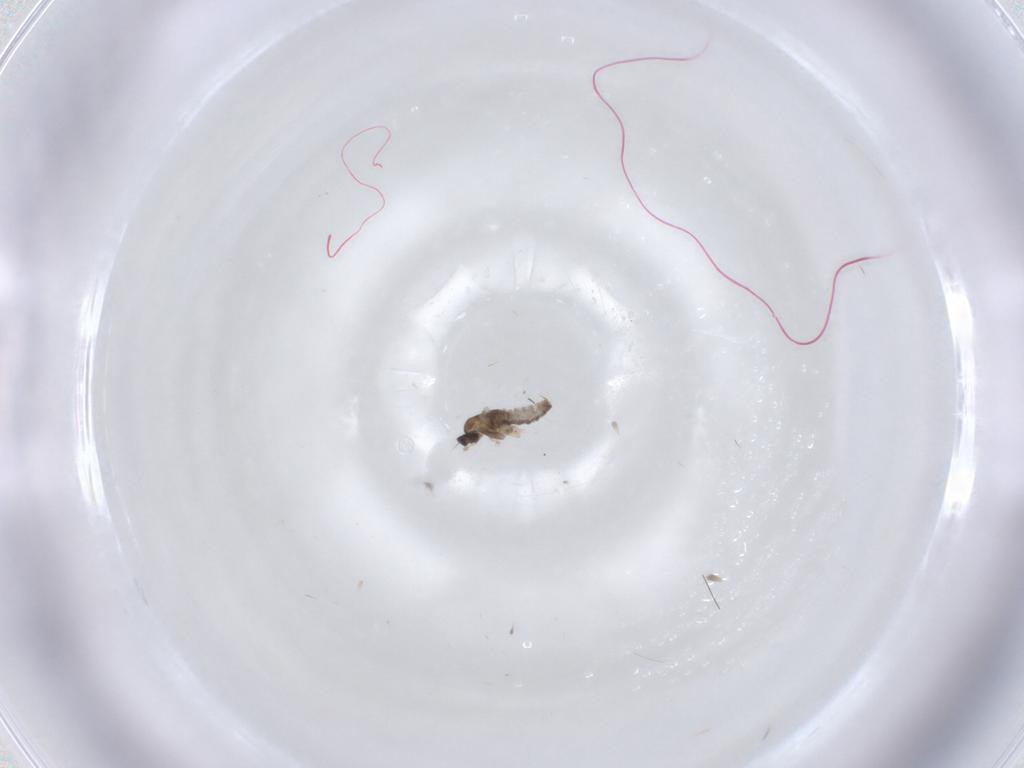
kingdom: Animalia
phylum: Arthropoda
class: Insecta
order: Diptera
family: Cecidomyiidae
